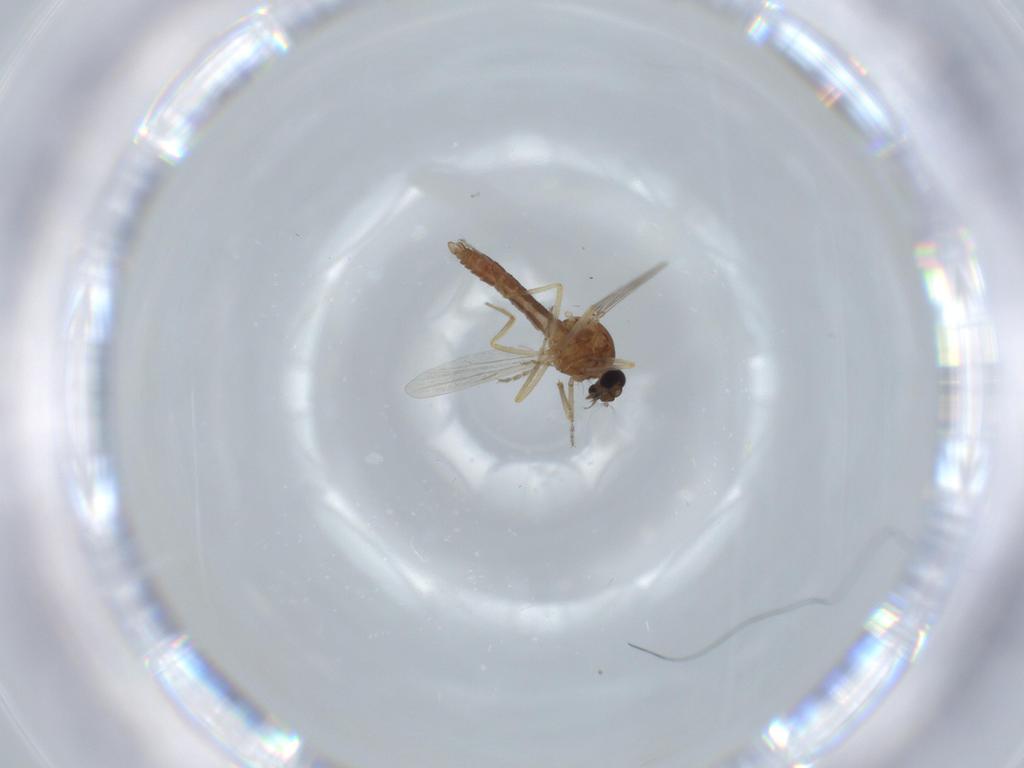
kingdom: Animalia
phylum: Arthropoda
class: Insecta
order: Diptera
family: Ceratopogonidae
